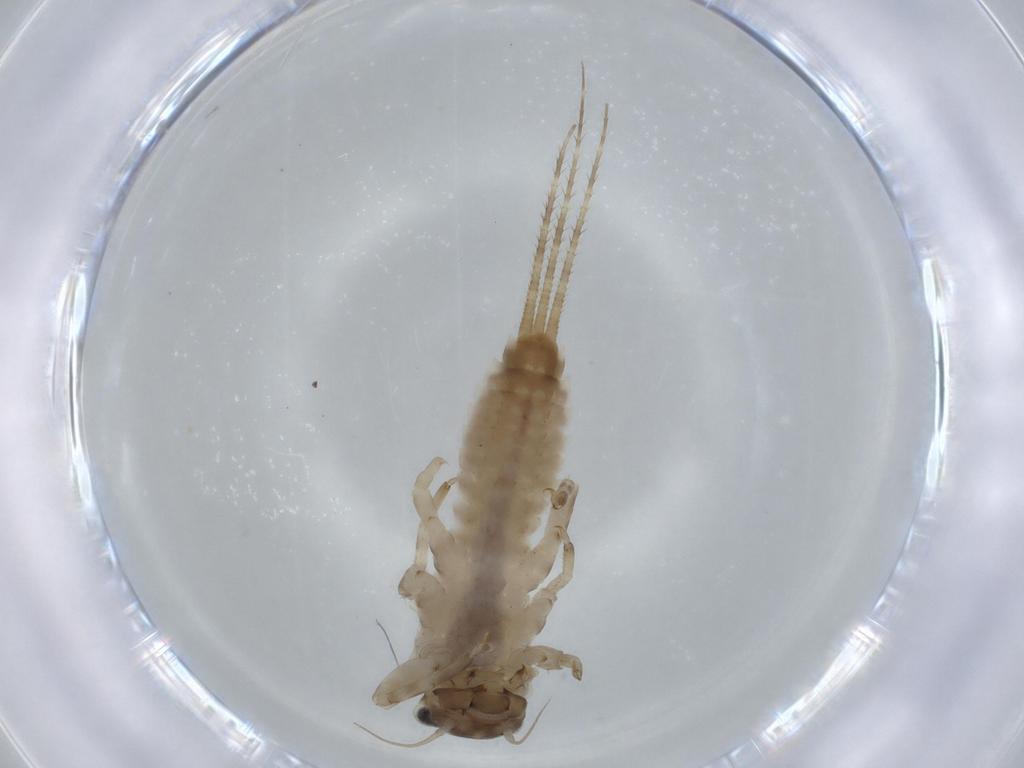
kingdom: Animalia
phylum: Arthropoda
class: Insecta
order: Ephemeroptera
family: Ephemerellidae
